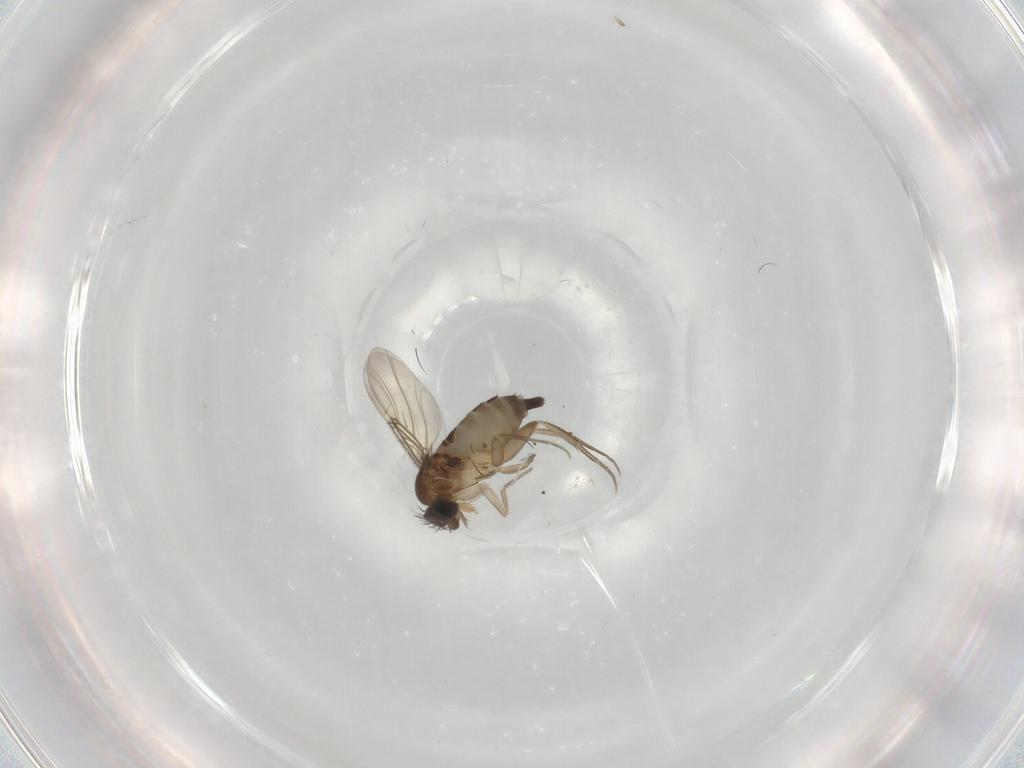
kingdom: Animalia
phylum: Arthropoda
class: Insecta
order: Diptera
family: Phoridae
